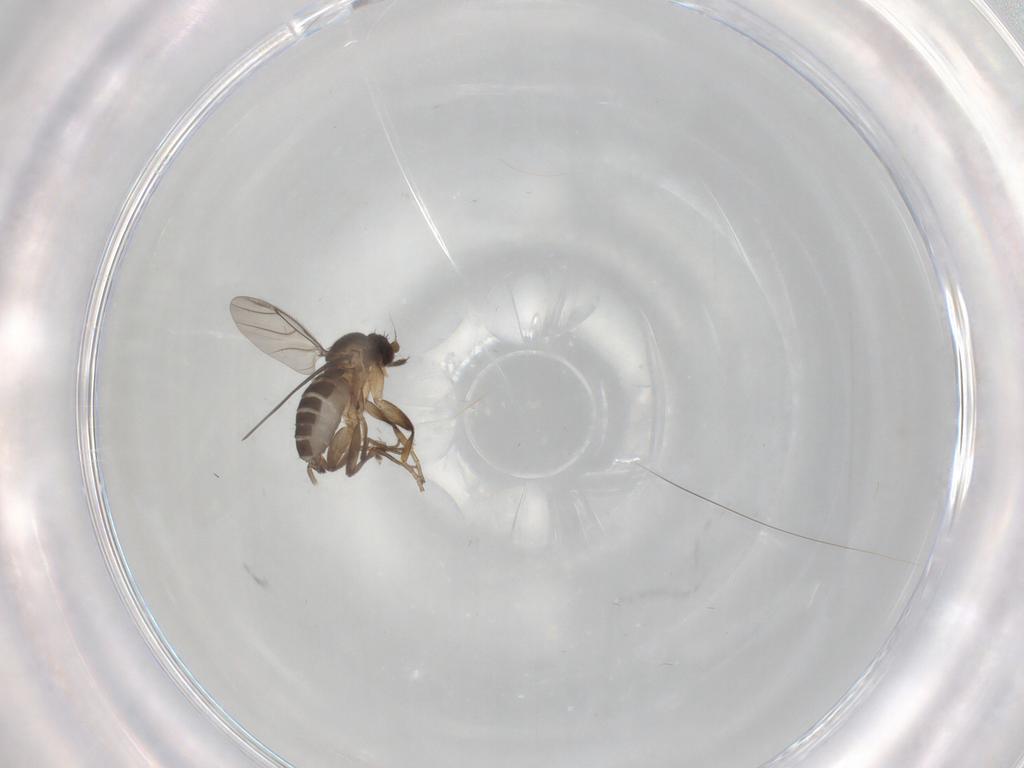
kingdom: Animalia
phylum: Arthropoda
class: Insecta
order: Diptera
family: Phoridae
